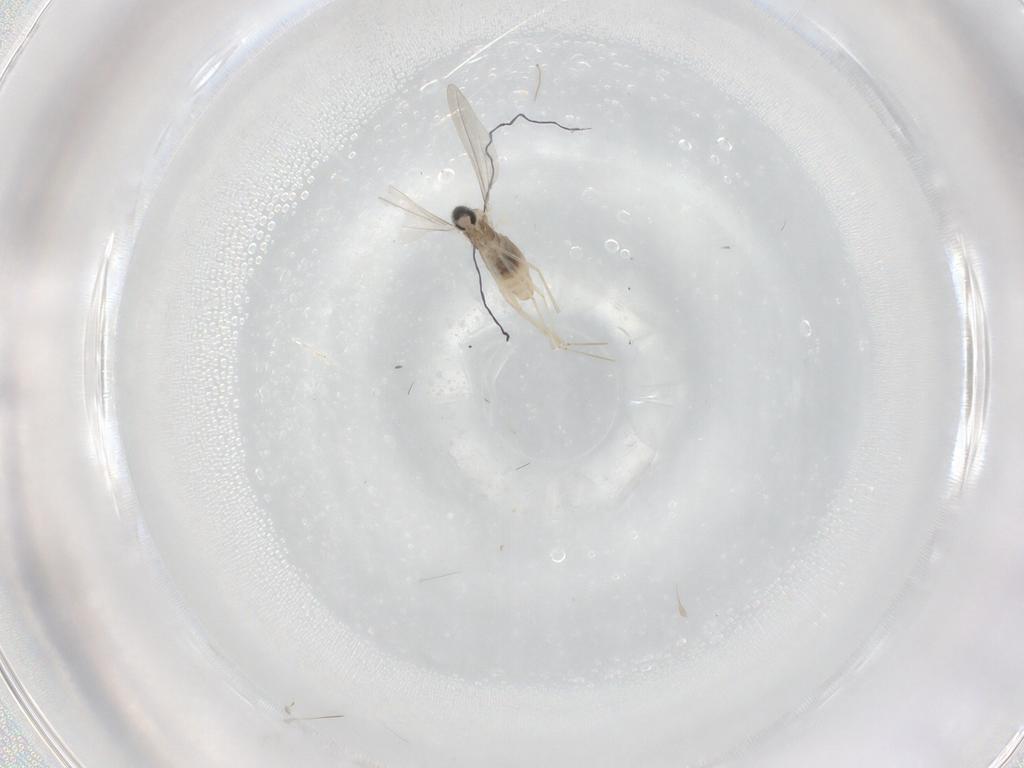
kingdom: Animalia
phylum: Arthropoda
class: Insecta
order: Diptera
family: Cecidomyiidae
